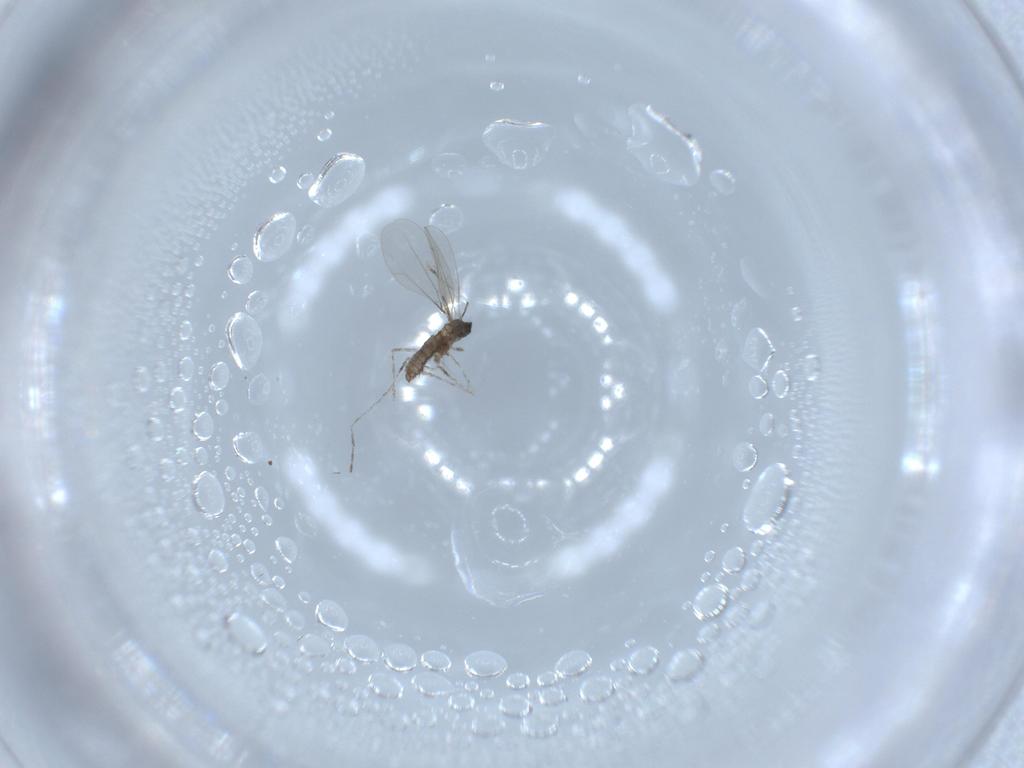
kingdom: Animalia
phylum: Arthropoda
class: Insecta
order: Diptera
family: Cecidomyiidae
